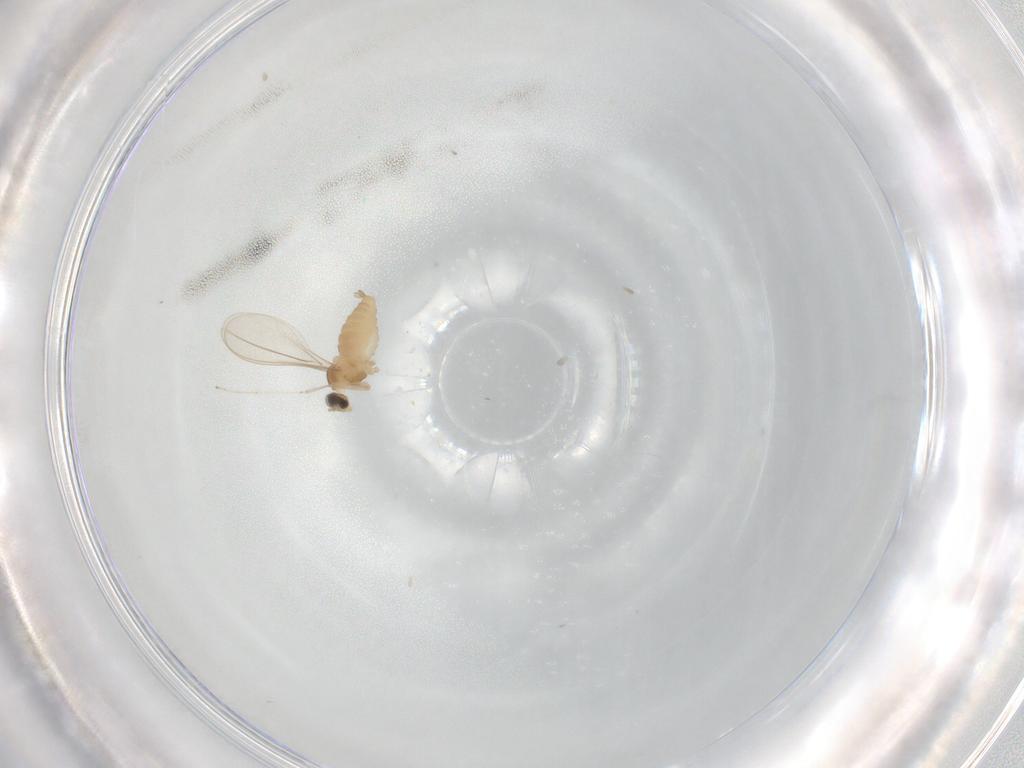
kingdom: Animalia
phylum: Arthropoda
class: Insecta
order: Diptera
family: Cecidomyiidae
